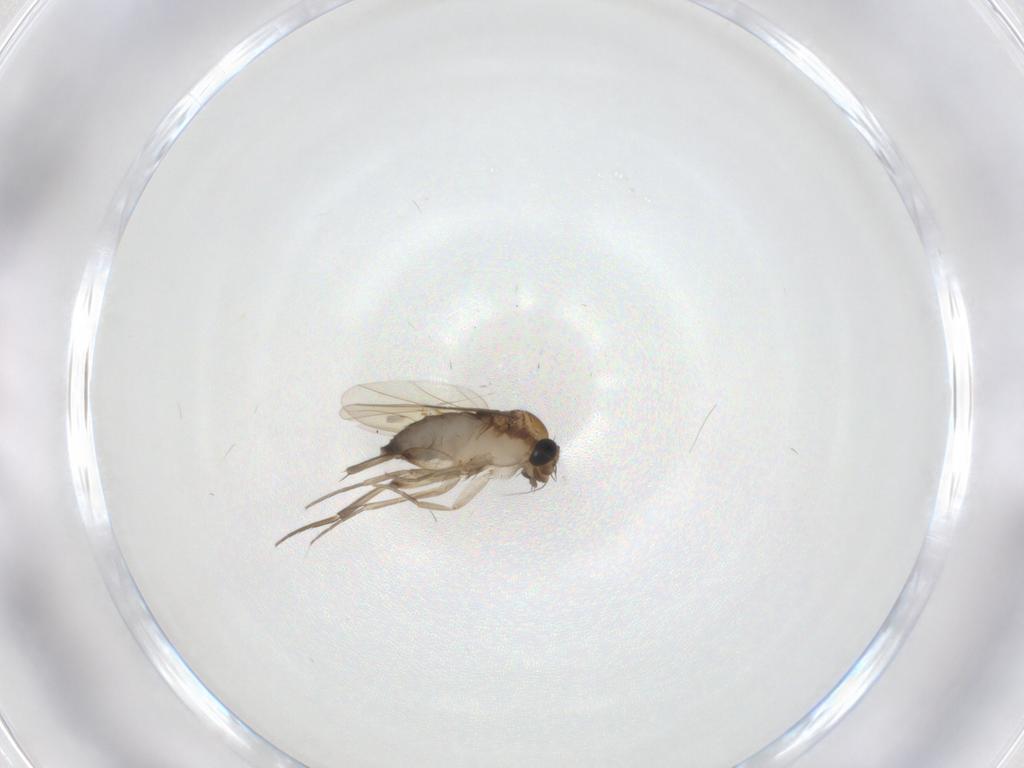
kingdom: Animalia
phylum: Arthropoda
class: Insecta
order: Diptera
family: Phoridae
